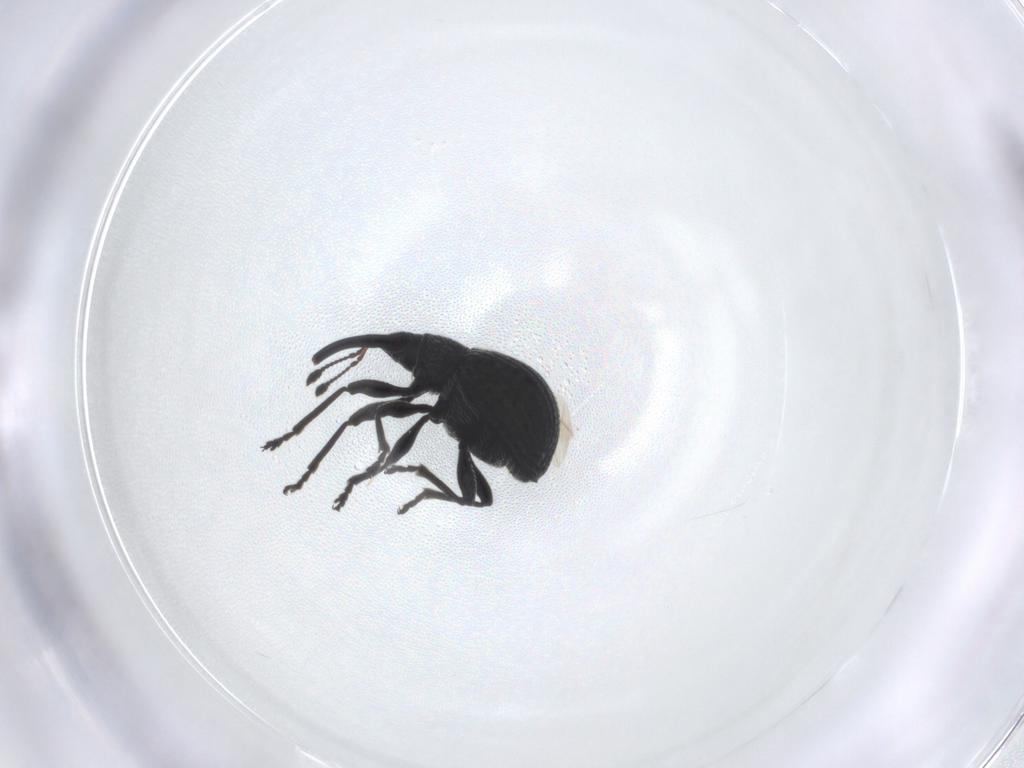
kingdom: Animalia
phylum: Arthropoda
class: Insecta
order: Coleoptera
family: Brentidae
